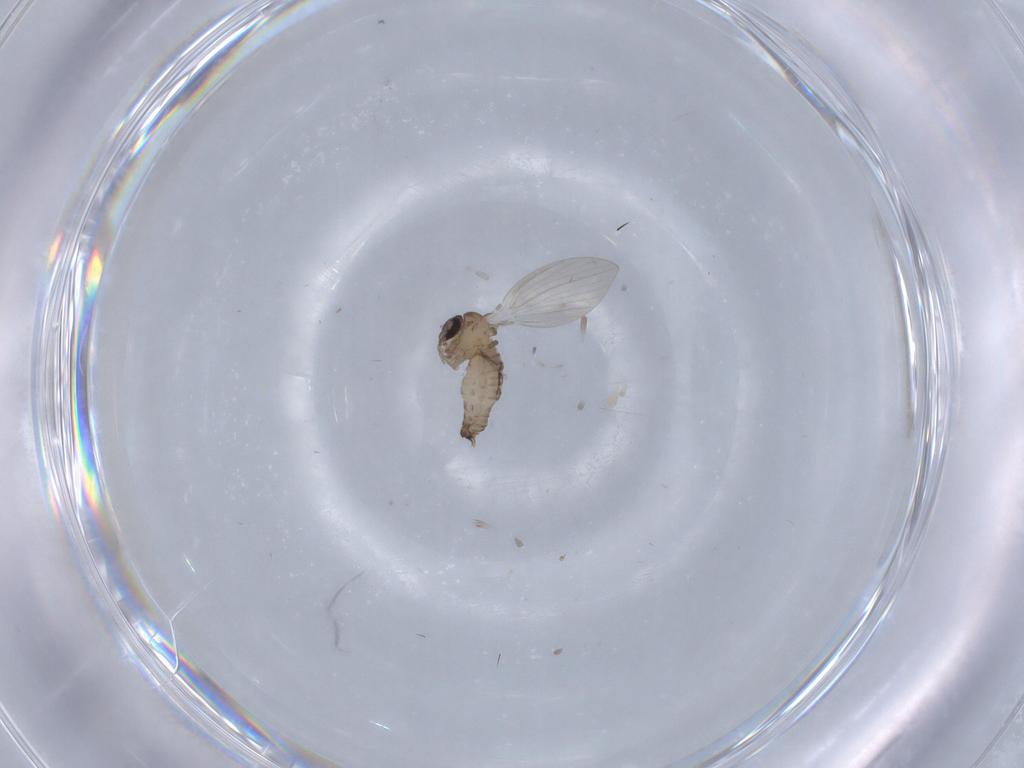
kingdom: Animalia
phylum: Arthropoda
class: Insecta
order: Diptera
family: Psychodidae
